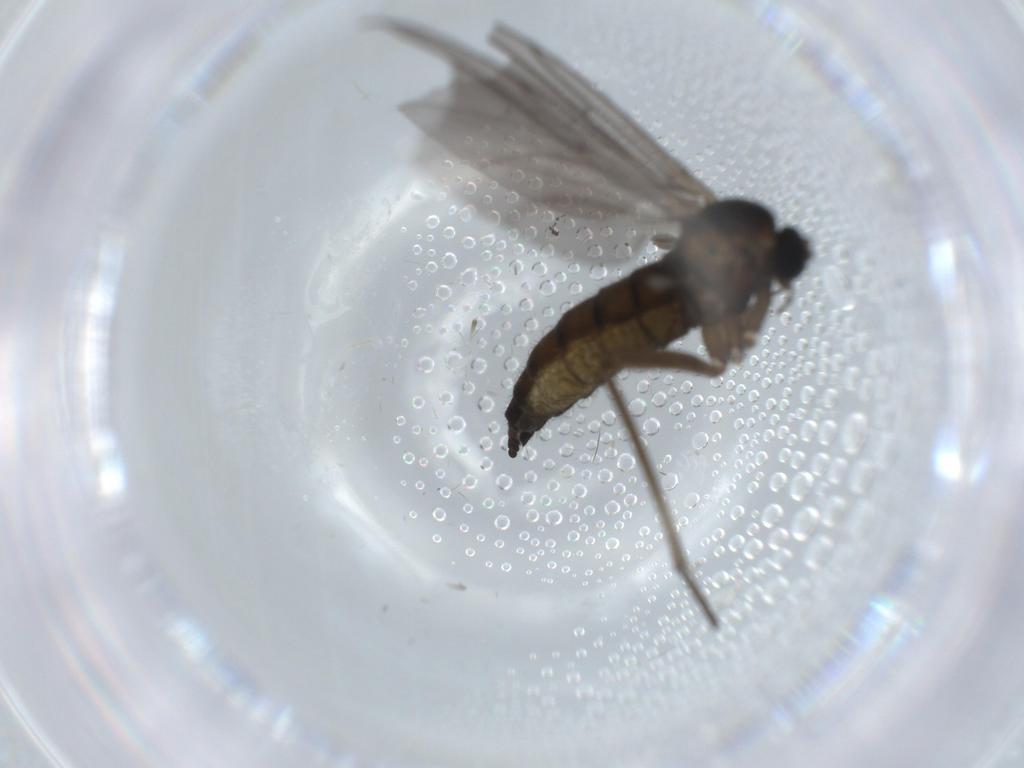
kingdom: Animalia
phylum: Arthropoda
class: Insecta
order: Diptera
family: Sciaridae
